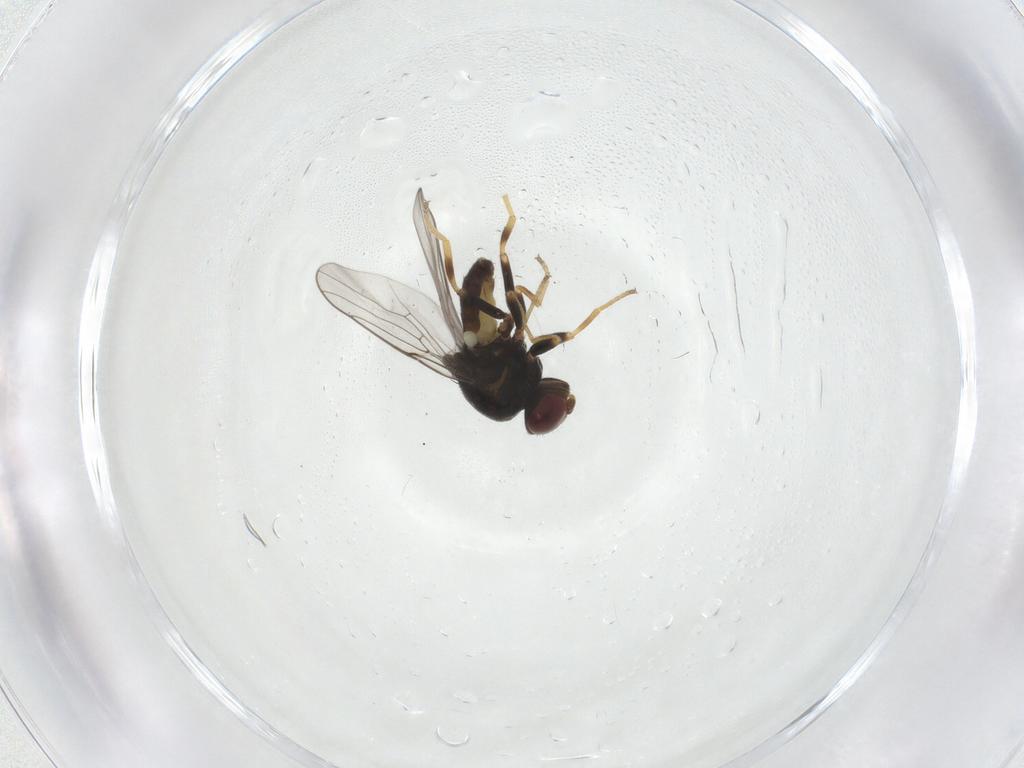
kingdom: Animalia
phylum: Arthropoda
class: Insecta
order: Diptera
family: Chloropidae
